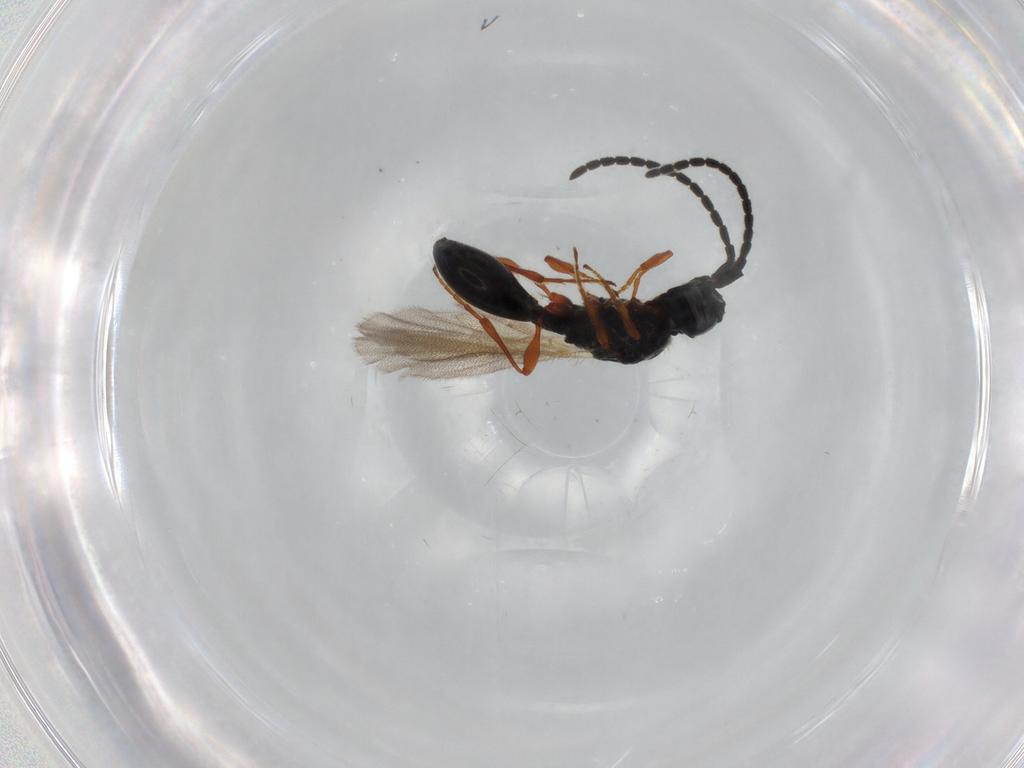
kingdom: Animalia
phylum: Arthropoda
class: Insecta
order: Hymenoptera
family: Diapriidae
